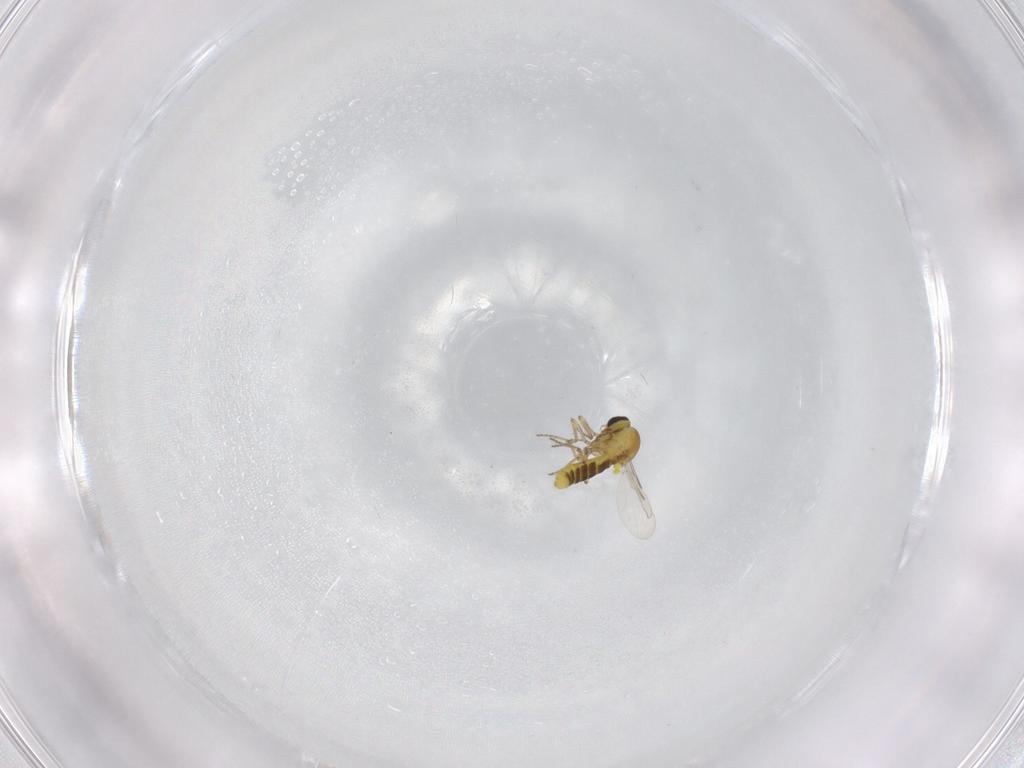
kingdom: Animalia
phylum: Arthropoda
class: Insecta
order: Diptera
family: Ceratopogonidae
